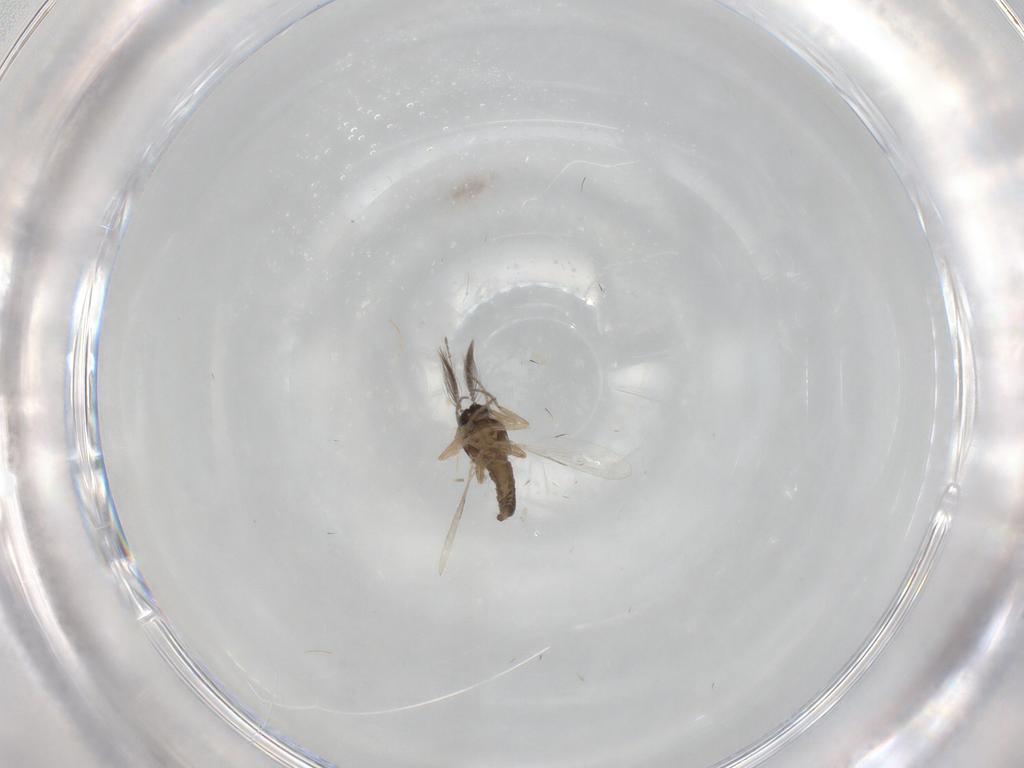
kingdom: Animalia
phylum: Arthropoda
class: Insecta
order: Diptera
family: Ceratopogonidae
